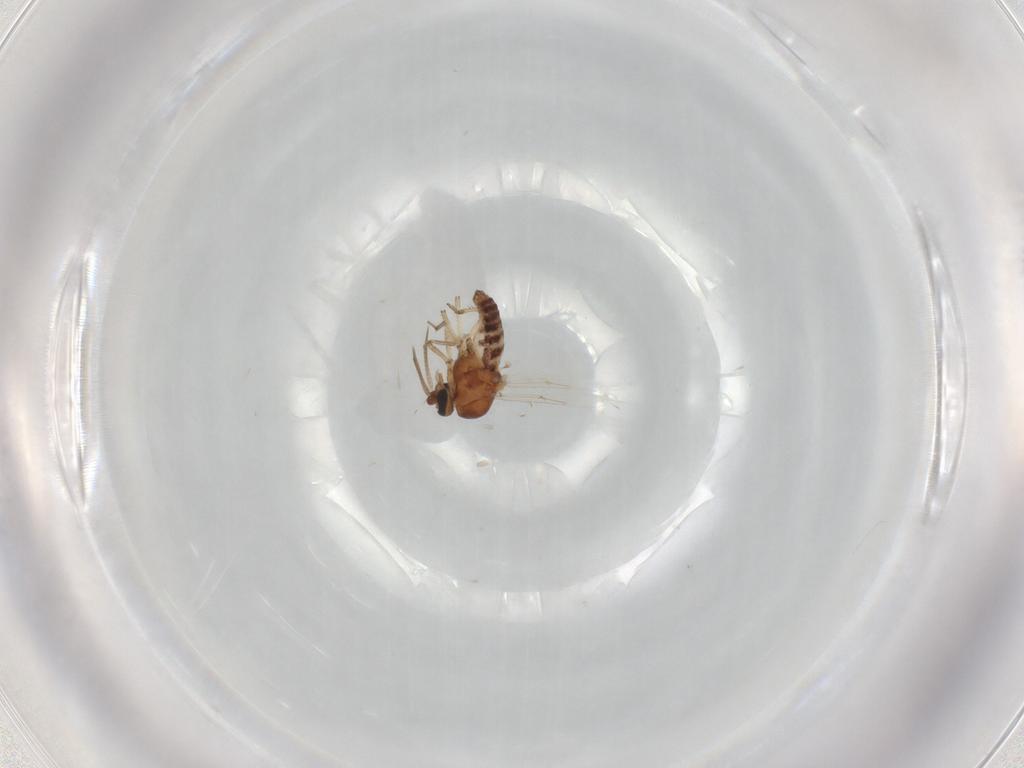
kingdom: Animalia
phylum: Arthropoda
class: Insecta
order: Diptera
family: Ceratopogonidae
